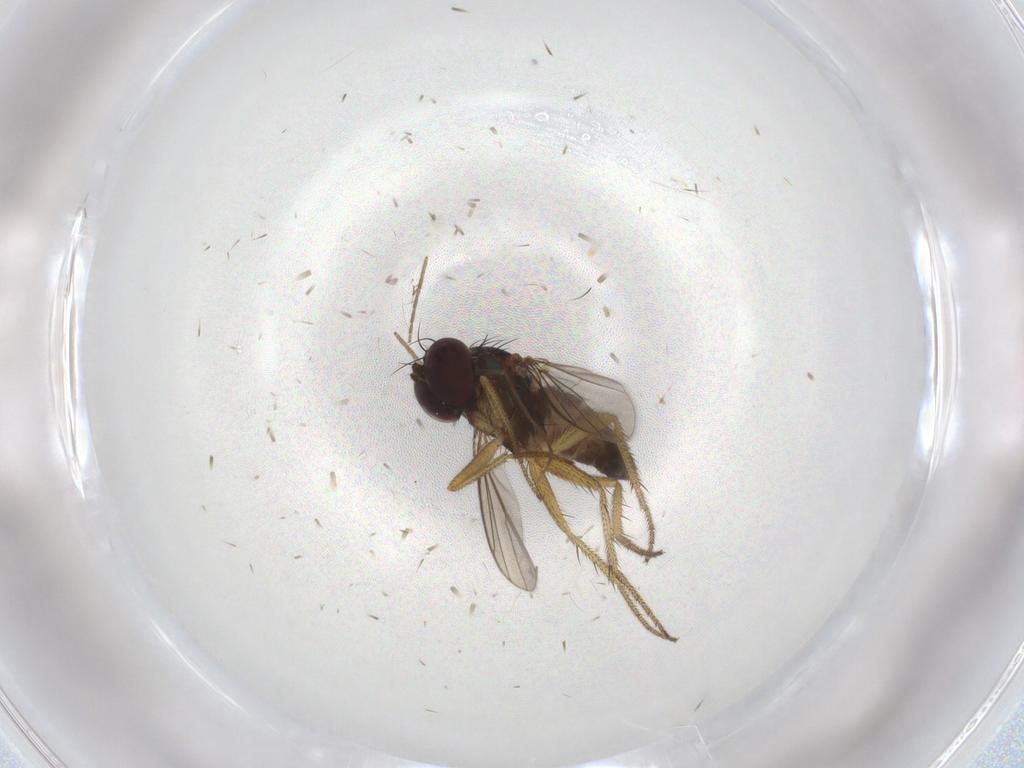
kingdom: Animalia
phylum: Arthropoda
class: Insecta
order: Diptera
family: Dolichopodidae
